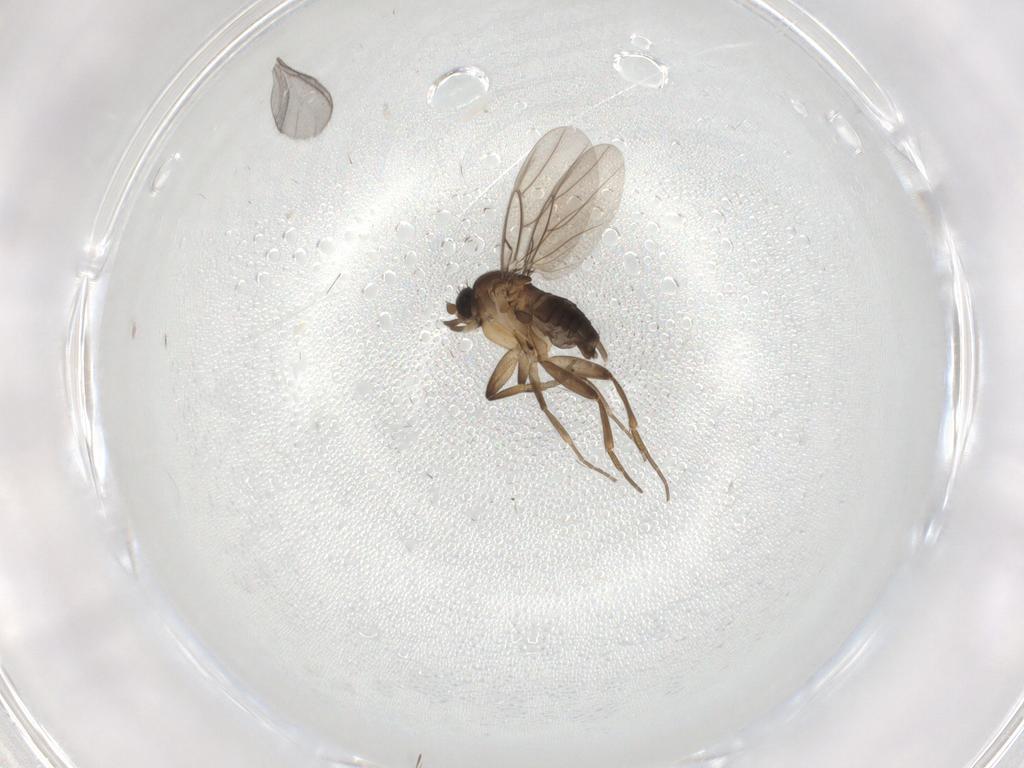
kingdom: Animalia
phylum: Arthropoda
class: Insecta
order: Diptera
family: Phoridae
